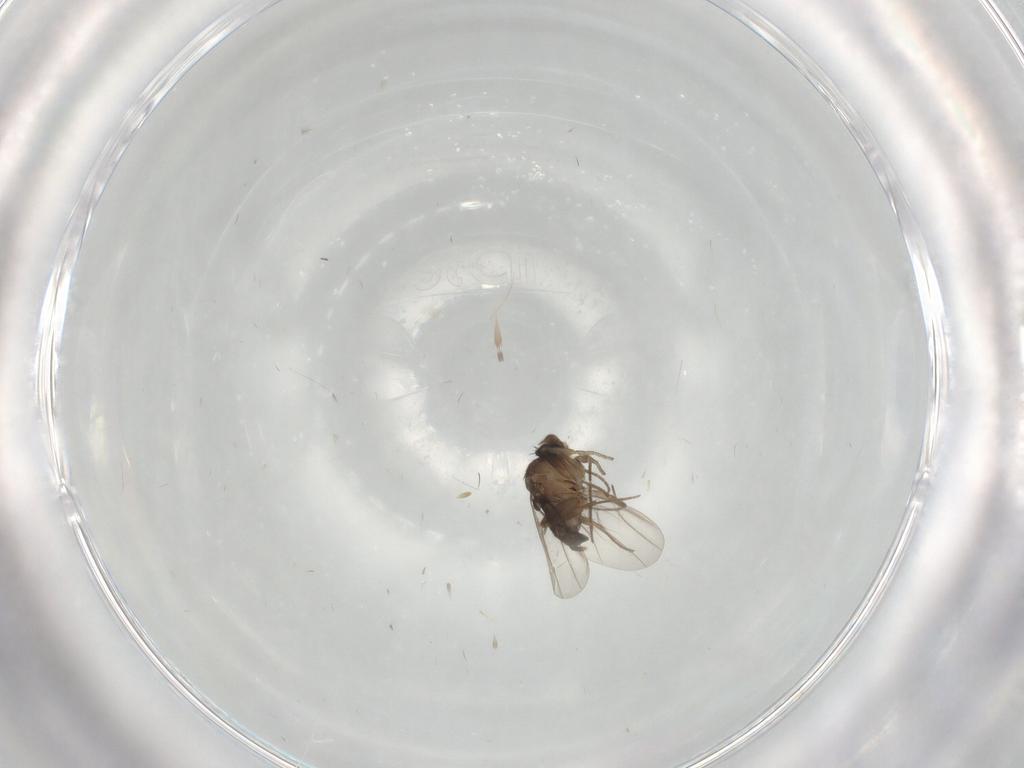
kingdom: Animalia
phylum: Arthropoda
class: Insecta
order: Diptera
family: Phoridae
